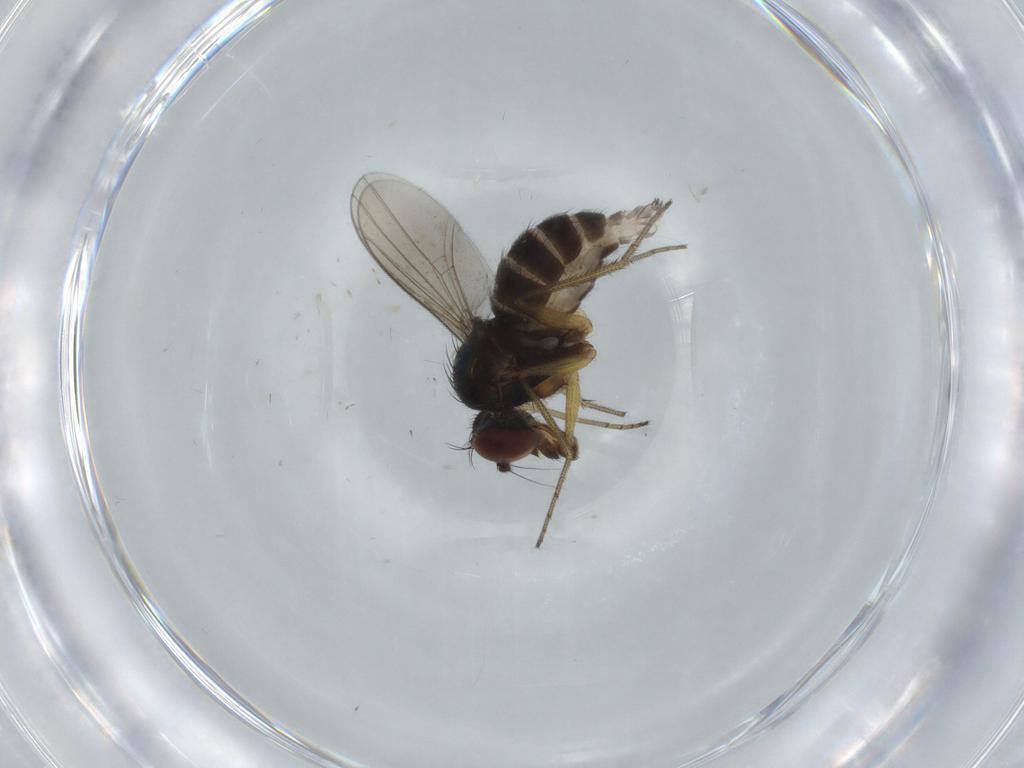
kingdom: Animalia
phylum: Arthropoda
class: Insecta
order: Diptera
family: Dolichopodidae
